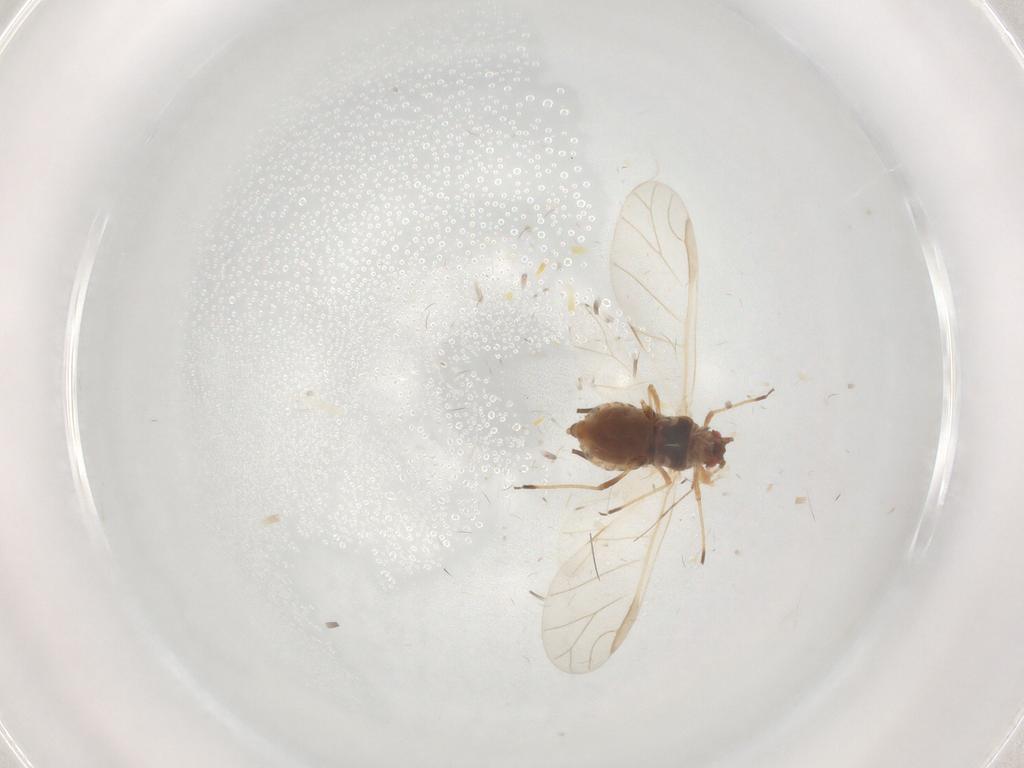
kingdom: Animalia
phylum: Arthropoda
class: Insecta
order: Hemiptera
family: Aphididae
